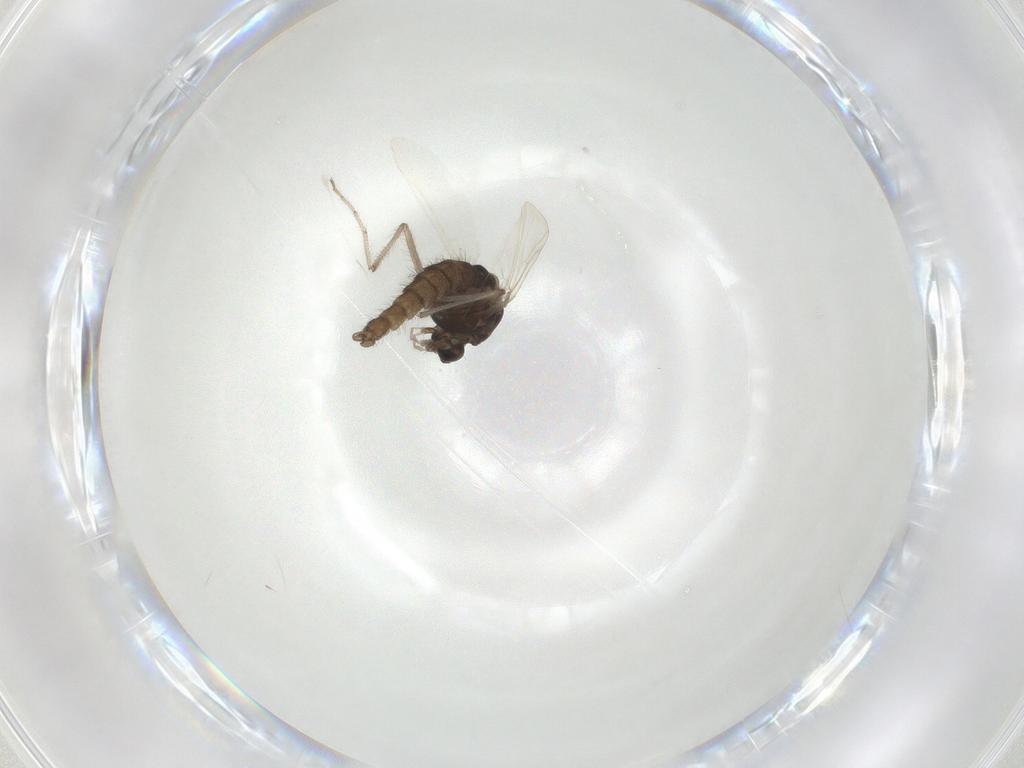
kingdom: Animalia
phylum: Arthropoda
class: Insecta
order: Diptera
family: Chironomidae
